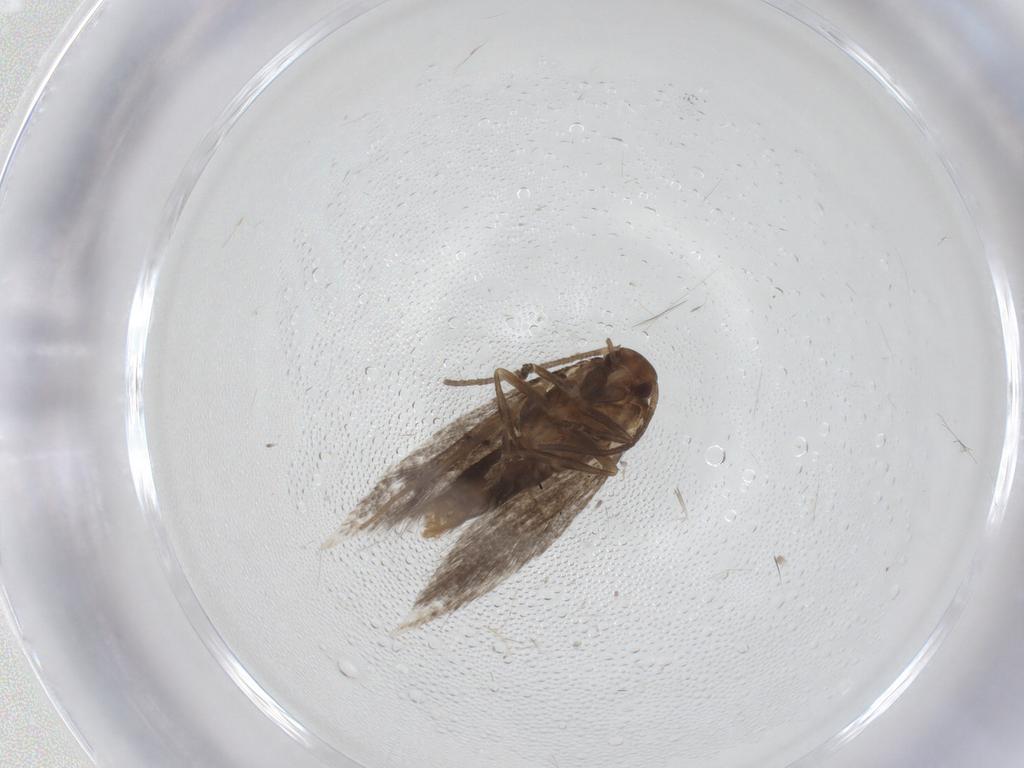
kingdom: Animalia
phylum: Arthropoda
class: Insecta
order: Lepidoptera
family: Elachistidae
